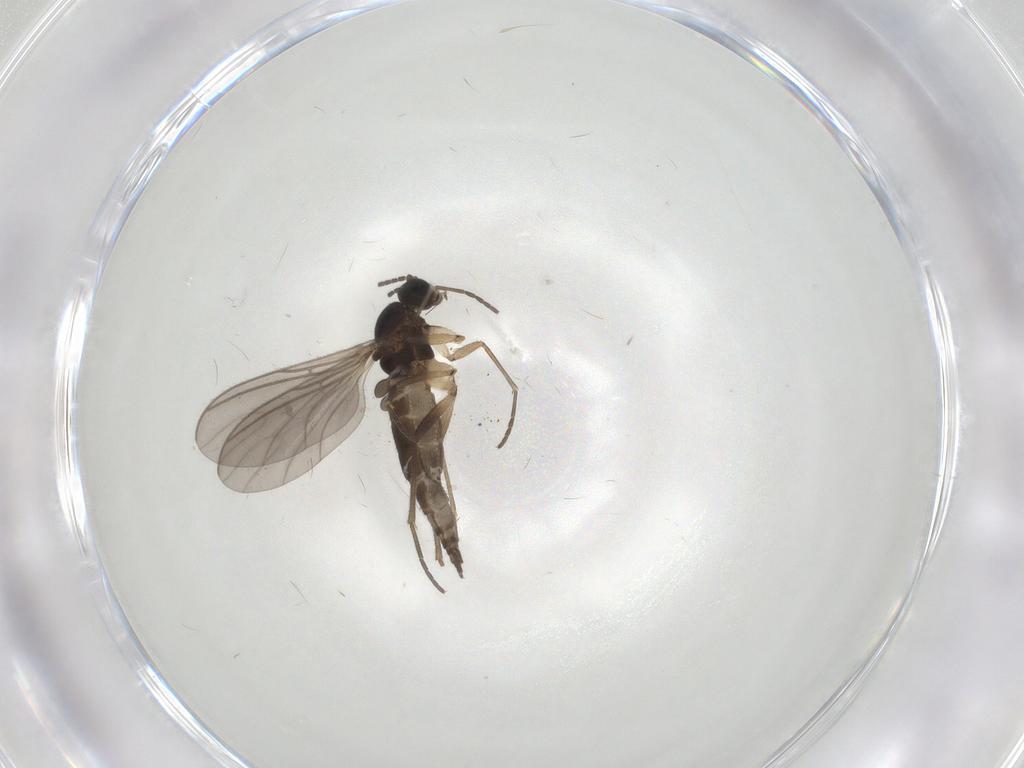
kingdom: Animalia
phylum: Arthropoda
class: Insecta
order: Diptera
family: Sciaridae
